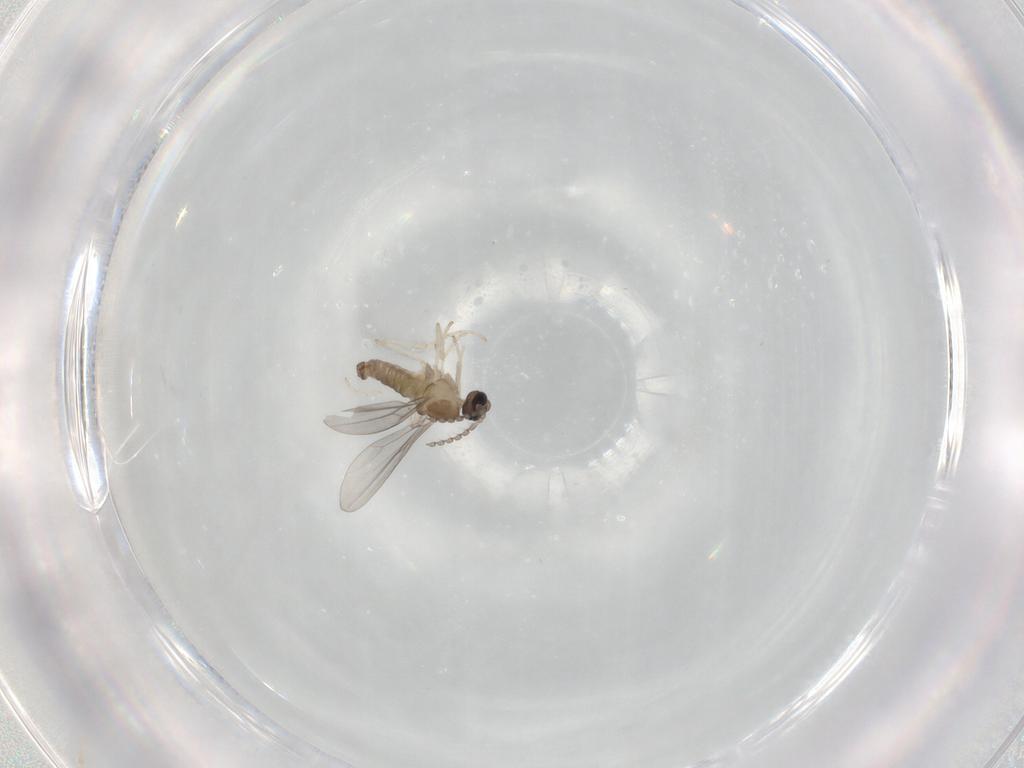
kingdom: Animalia
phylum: Arthropoda
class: Insecta
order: Diptera
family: Cecidomyiidae
